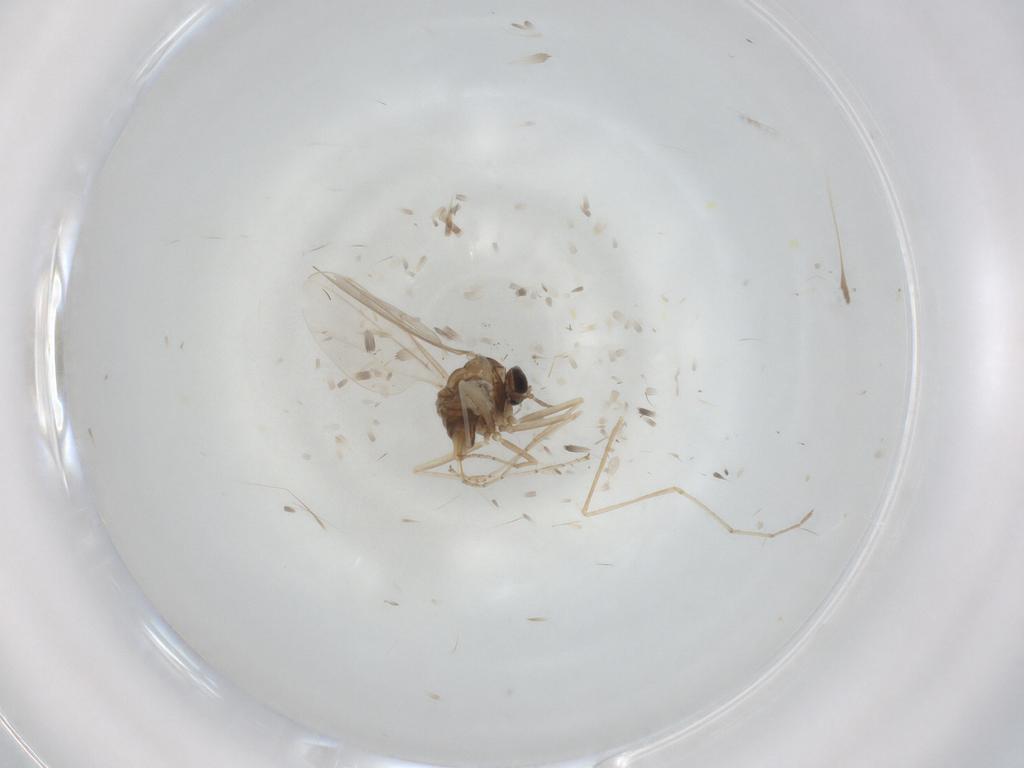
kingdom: Animalia
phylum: Arthropoda
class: Insecta
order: Diptera
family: Cecidomyiidae
